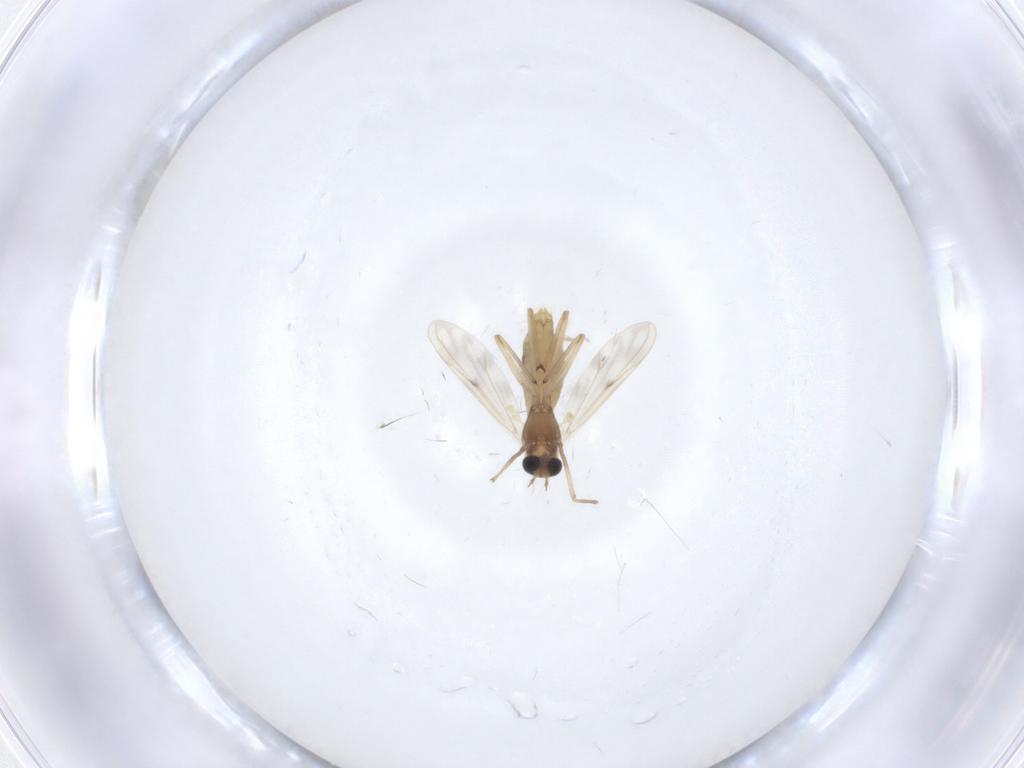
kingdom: Animalia
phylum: Arthropoda
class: Insecta
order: Diptera
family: Chironomidae
